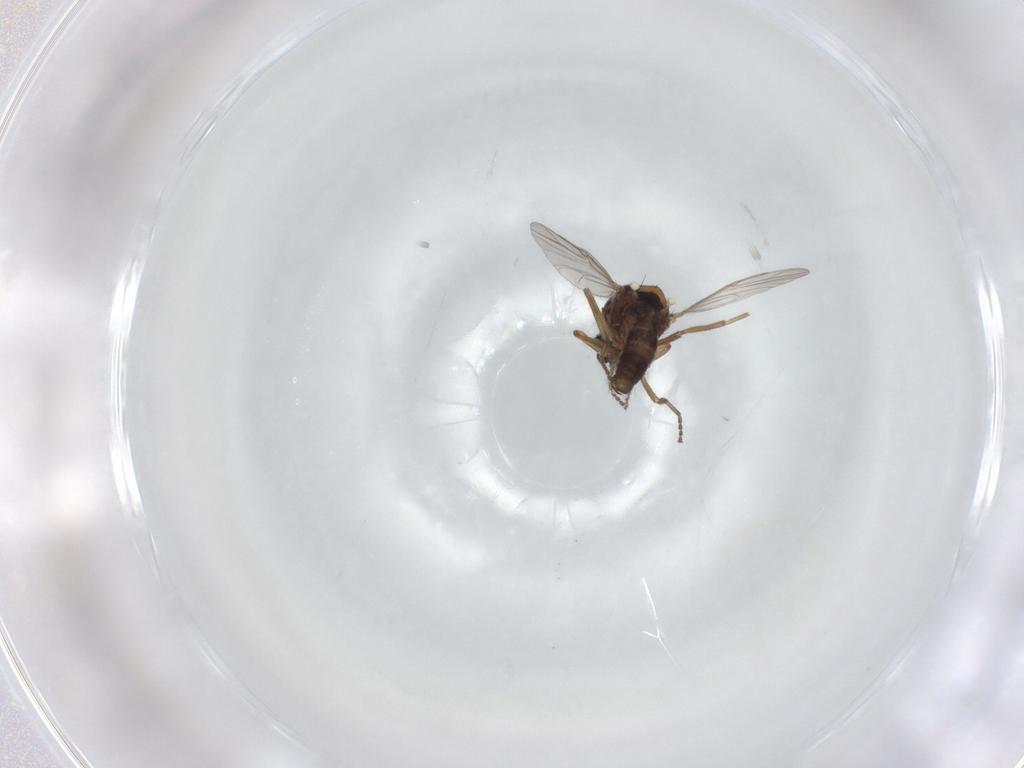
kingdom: Animalia
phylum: Arthropoda
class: Insecta
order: Diptera
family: Ceratopogonidae
